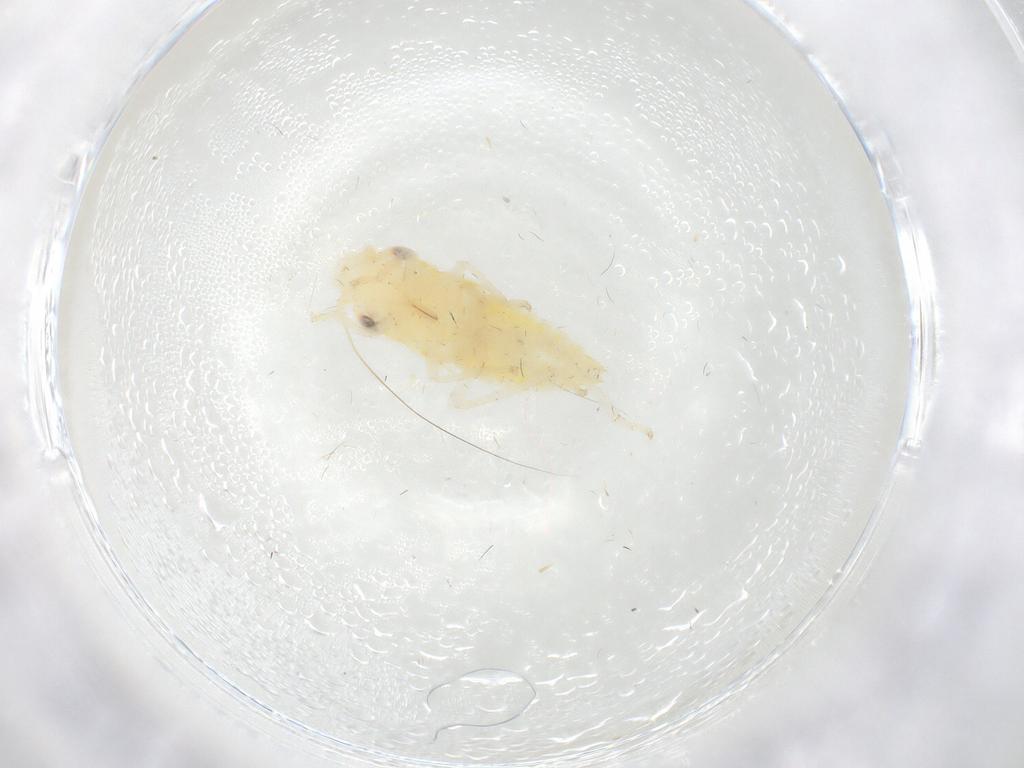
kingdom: Animalia
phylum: Arthropoda
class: Insecta
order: Hemiptera
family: Cicadellidae
